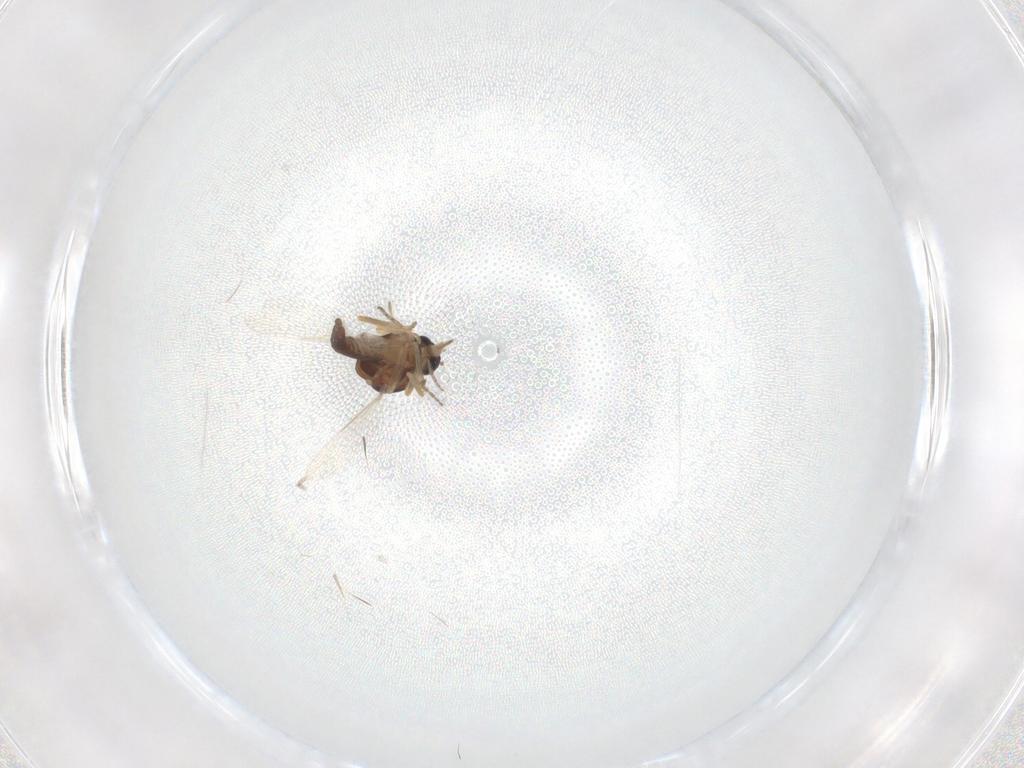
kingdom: Animalia
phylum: Arthropoda
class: Insecta
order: Diptera
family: Ceratopogonidae
